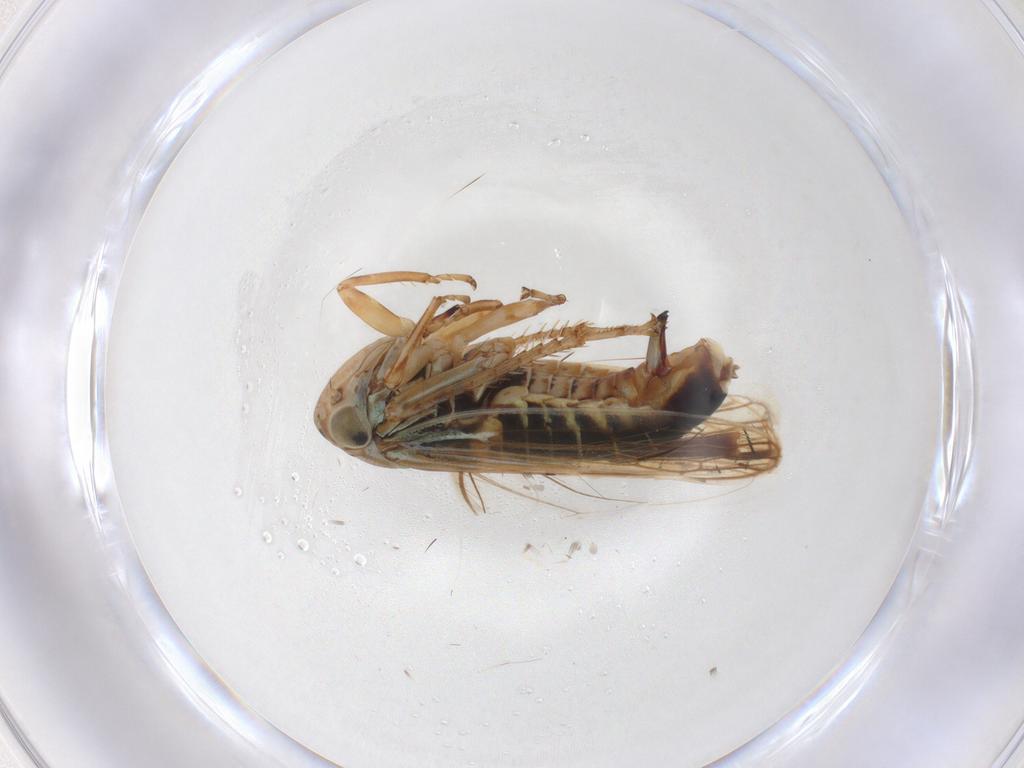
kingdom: Animalia
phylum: Arthropoda
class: Insecta
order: Hemiptera
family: Cicadellidae
